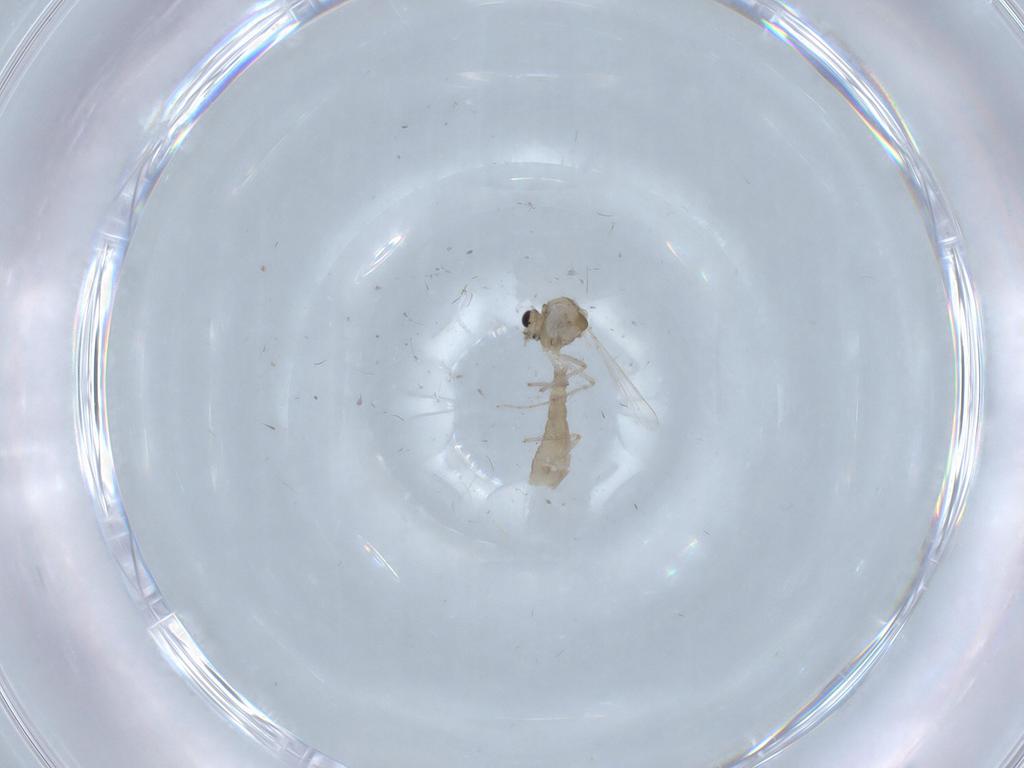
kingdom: Animalia
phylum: Arthropoda
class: Insecta
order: Diptera
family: Chironomidae
